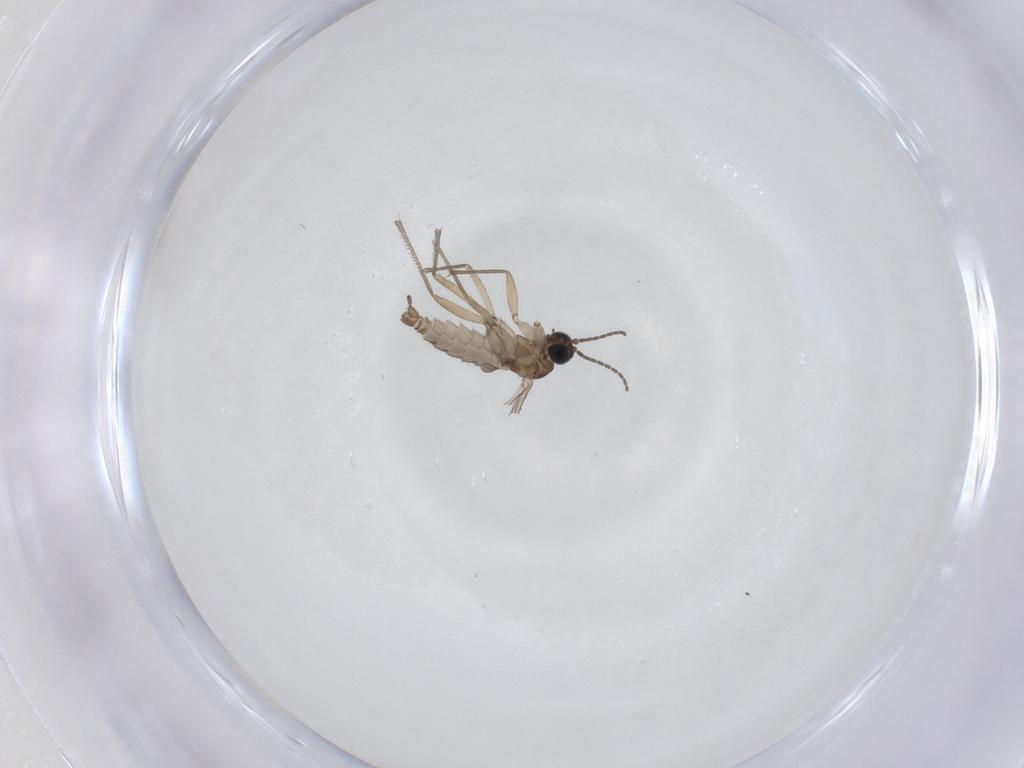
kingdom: Animalia
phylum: Arthropoda
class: Insecta
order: Diptera
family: Sciaridae
